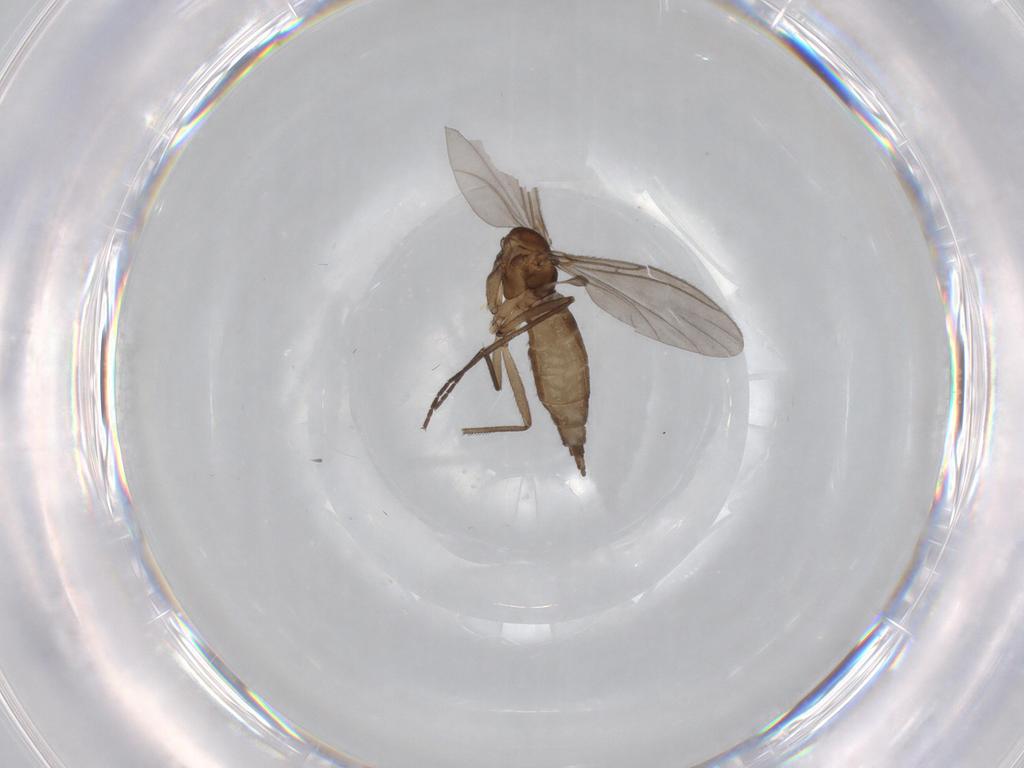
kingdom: Animalia
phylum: Arthropoda
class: Insecta
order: Diptera
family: Sciaridae
